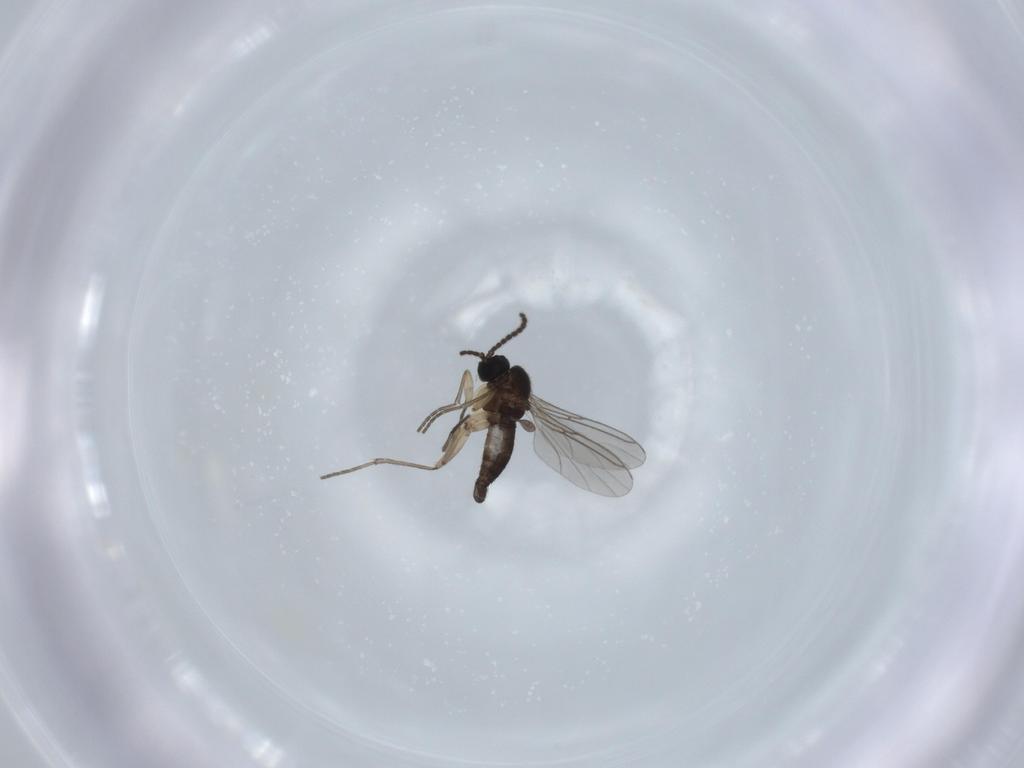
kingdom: Animalia
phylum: Arthropoda
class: Insecta
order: Diptera
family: Sciaridae
